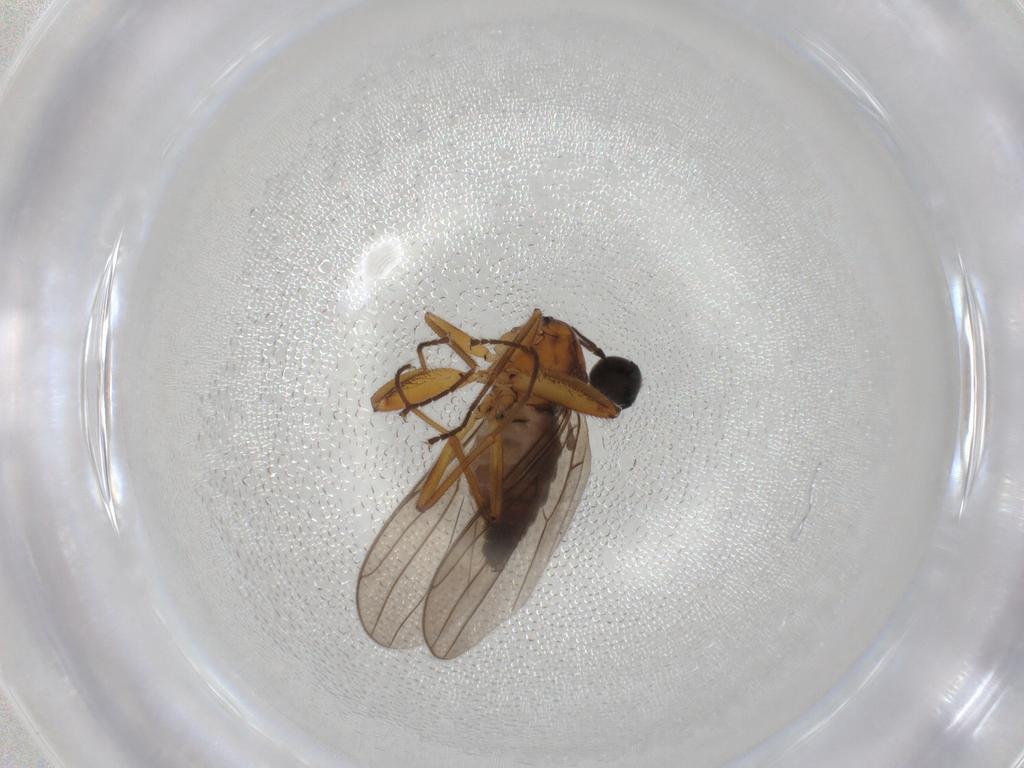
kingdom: Animalia
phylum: Arthropoda
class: Insecta
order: Diptera
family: Hybotidae
